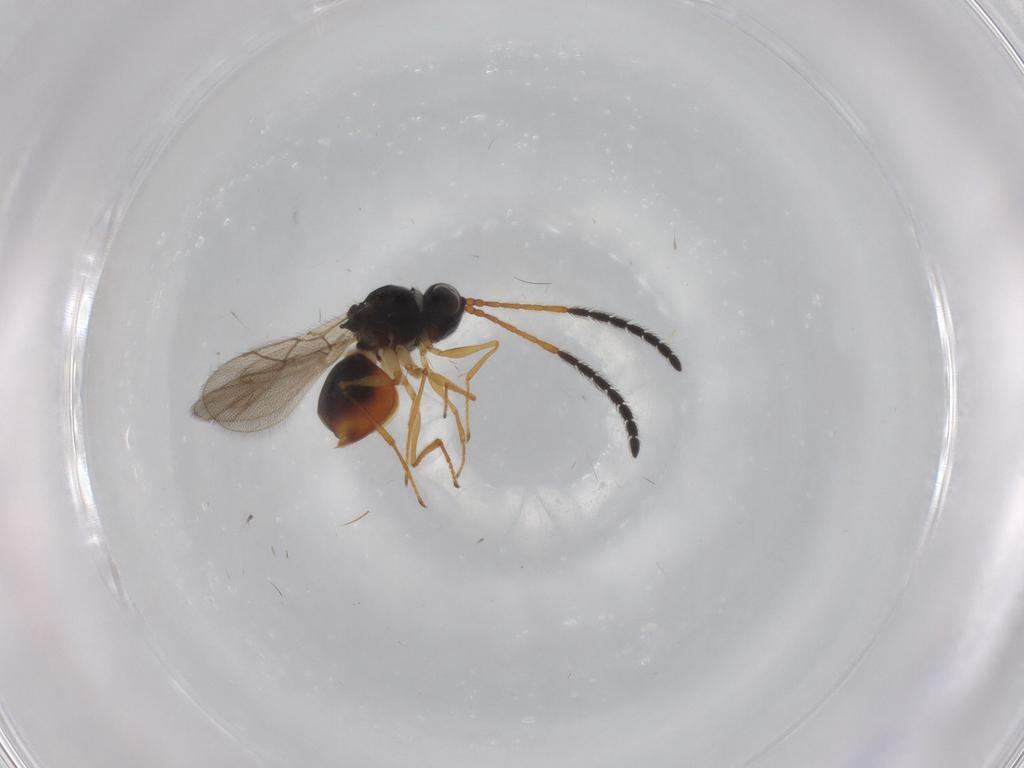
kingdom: Animalia
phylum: Arthropoda
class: Insecta
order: Hymenoptera
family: Figitidae
